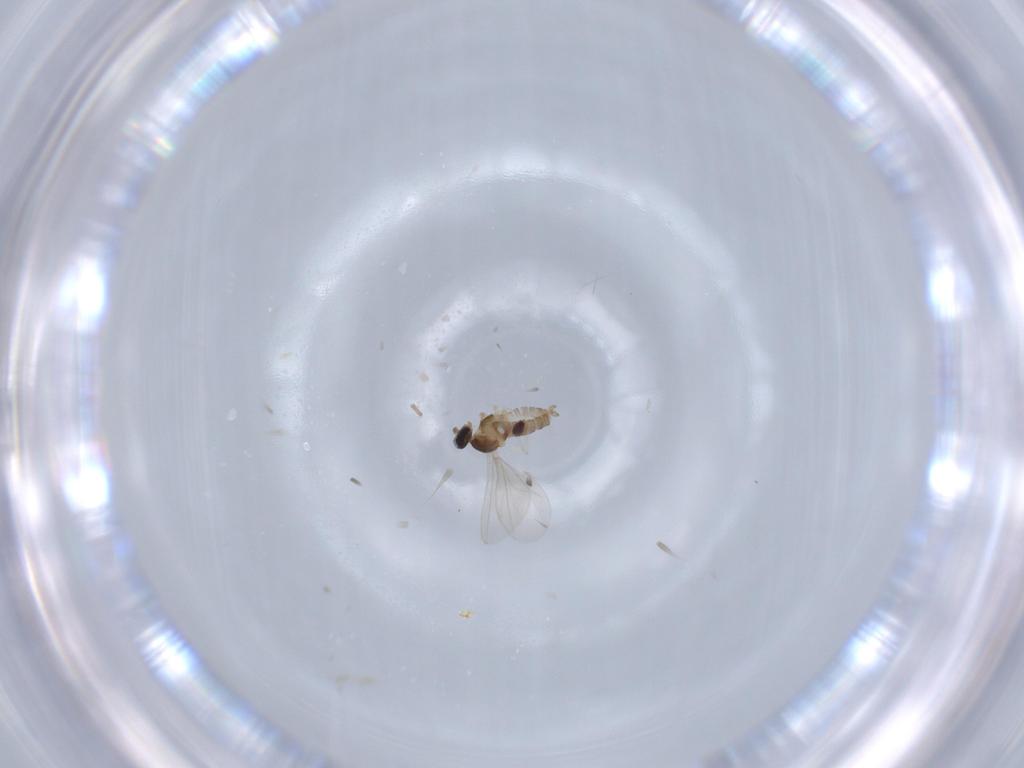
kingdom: Animalia
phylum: Arthropoda
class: Insecta
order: Diptera
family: Cecidomyiidae
